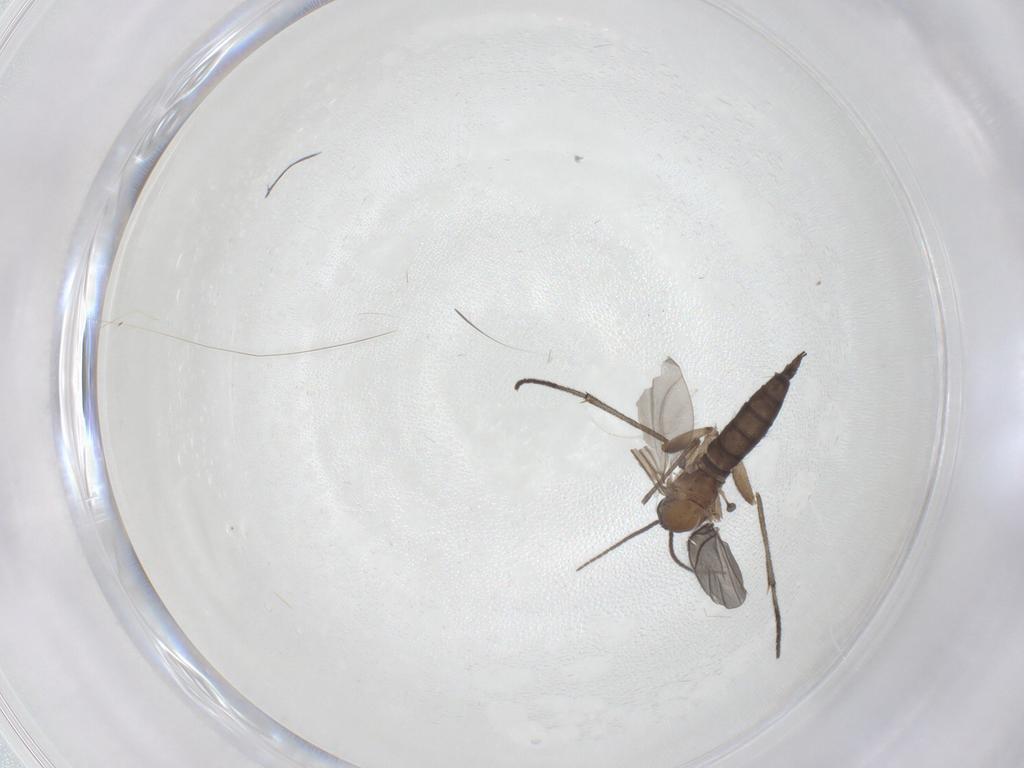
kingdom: Animalia
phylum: Arthropoda
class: Insecta
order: Diptera
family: Sciaridae
